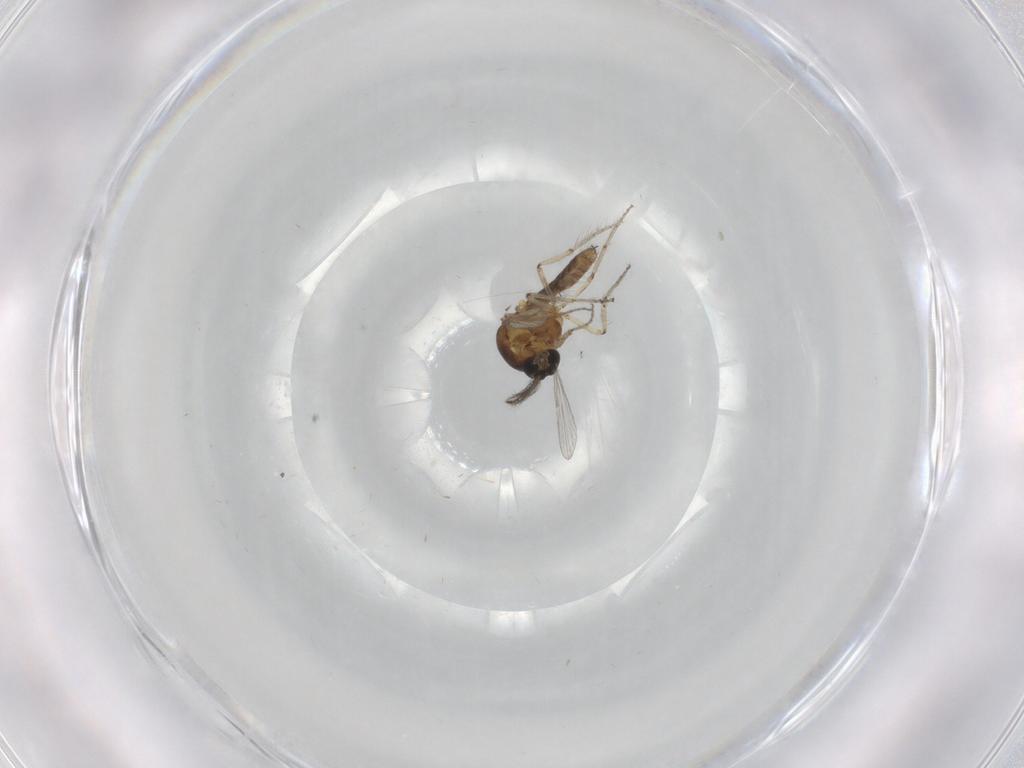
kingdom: Animalia
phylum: Arthropoda
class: Insecta
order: Diptera
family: Ceratopogonidae
